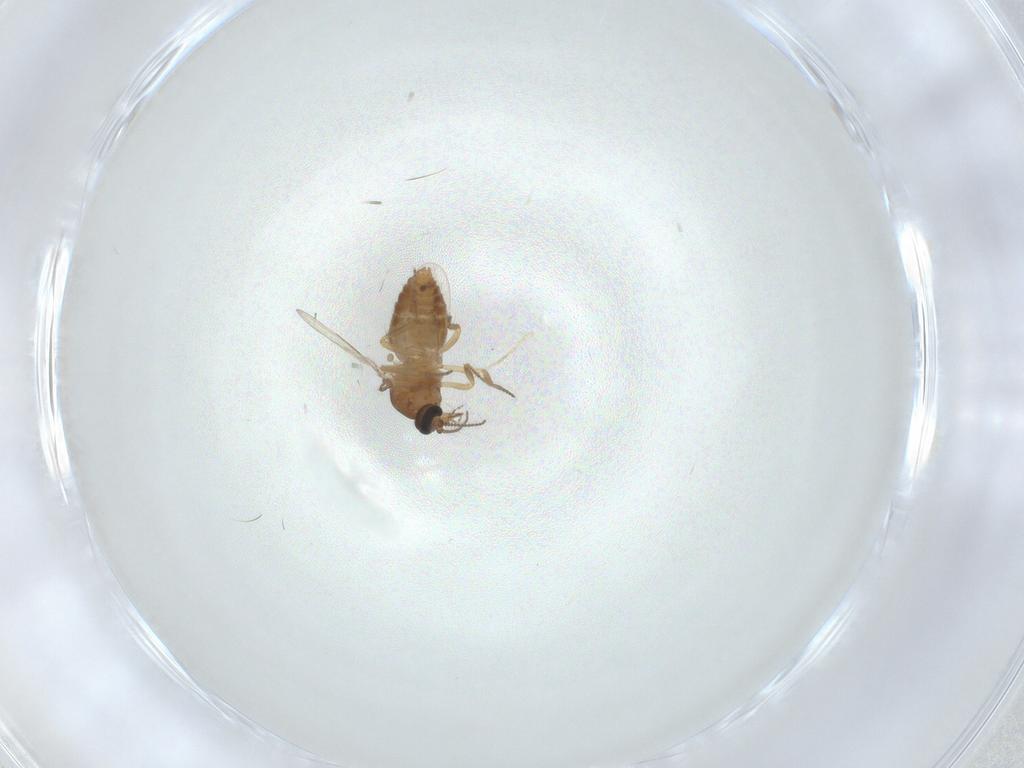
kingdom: Animalia
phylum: Arthropoda
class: Insecta
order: Diptera
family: Ceratopogonidae
